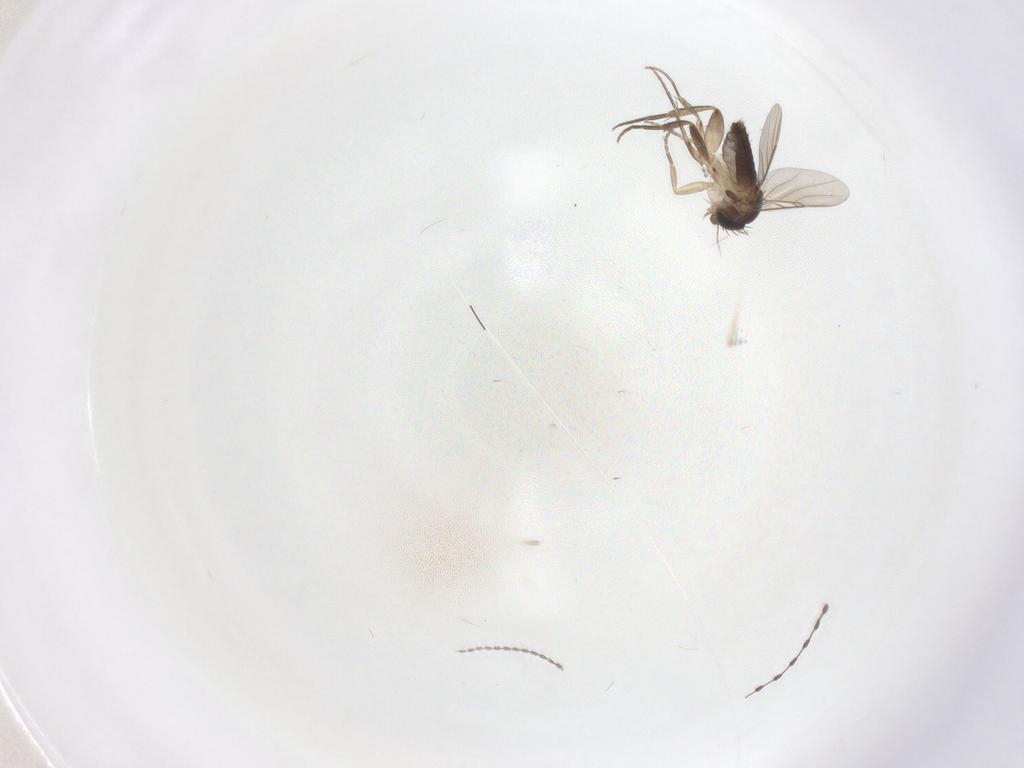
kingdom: Animalia
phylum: Arthropoda
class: Insecta
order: Diptera
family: Phoridae
